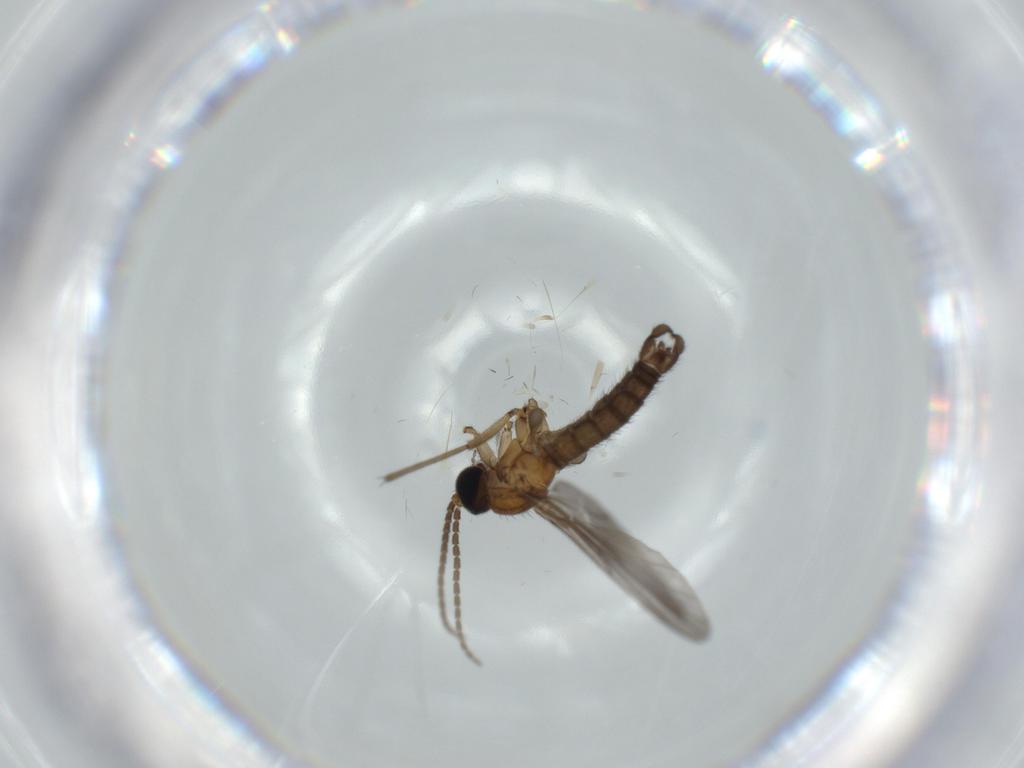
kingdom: Animalia
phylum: Arthropoda
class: Insecta
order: Diptera
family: Sciaridae
